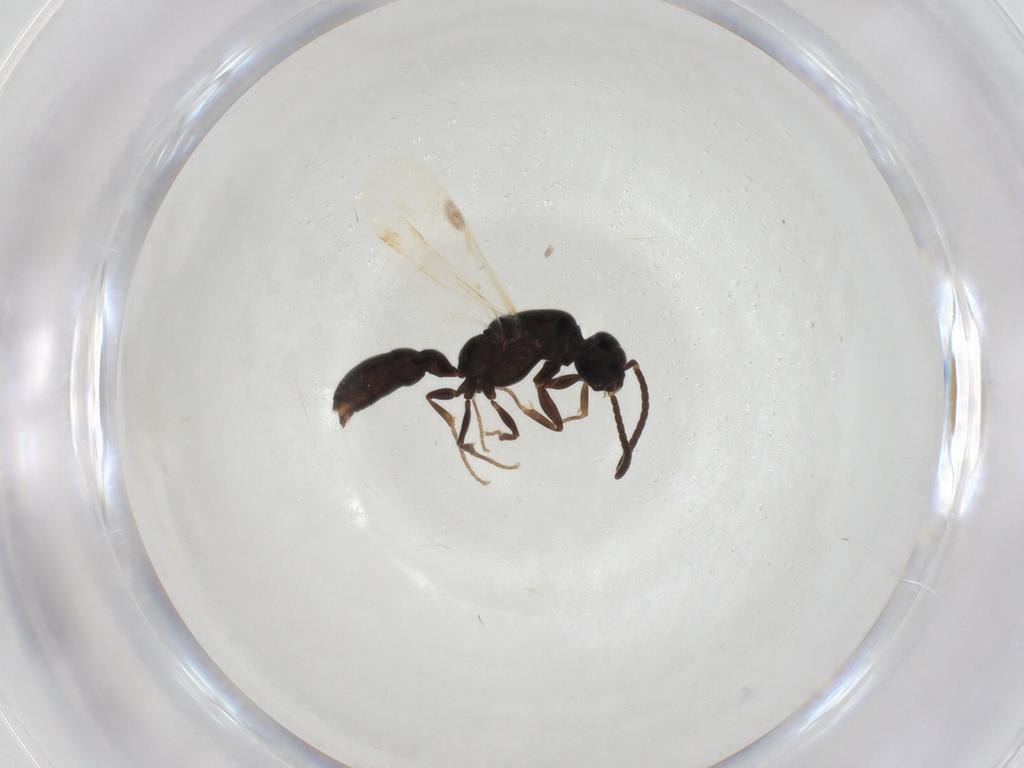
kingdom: Animalia
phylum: Arthropoda
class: Insecta
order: Hymenoptera
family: Formicidae
